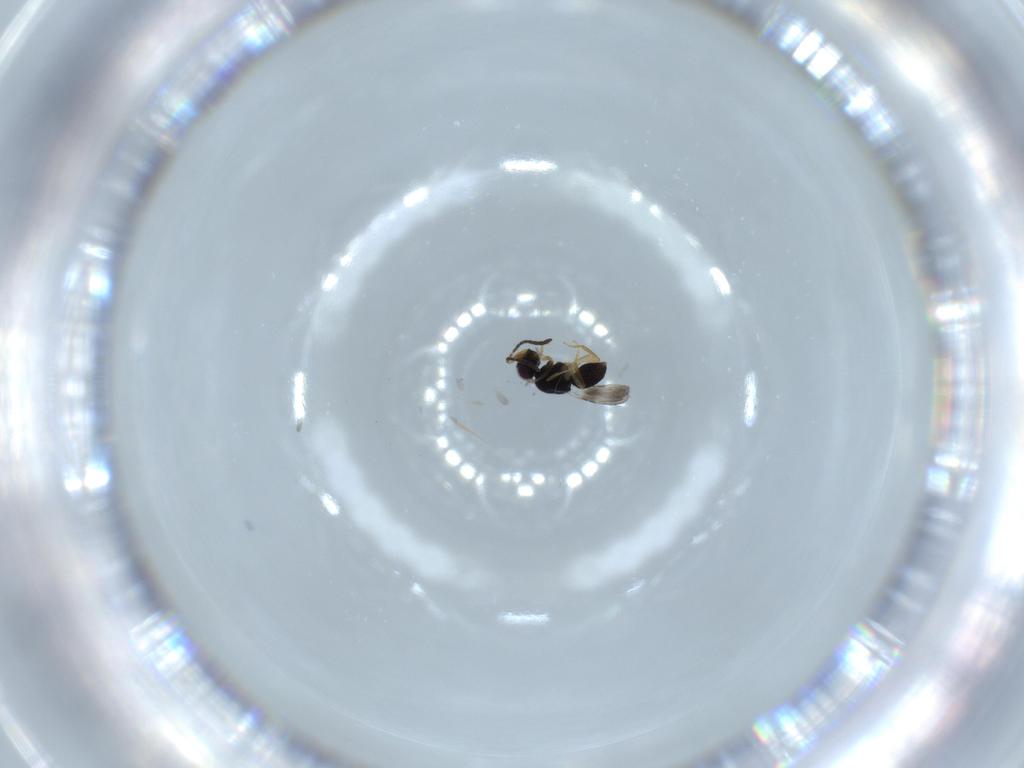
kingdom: Animalia
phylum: Arthropoda
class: Insecta
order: Hymenoptera
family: Ceraphronidae
